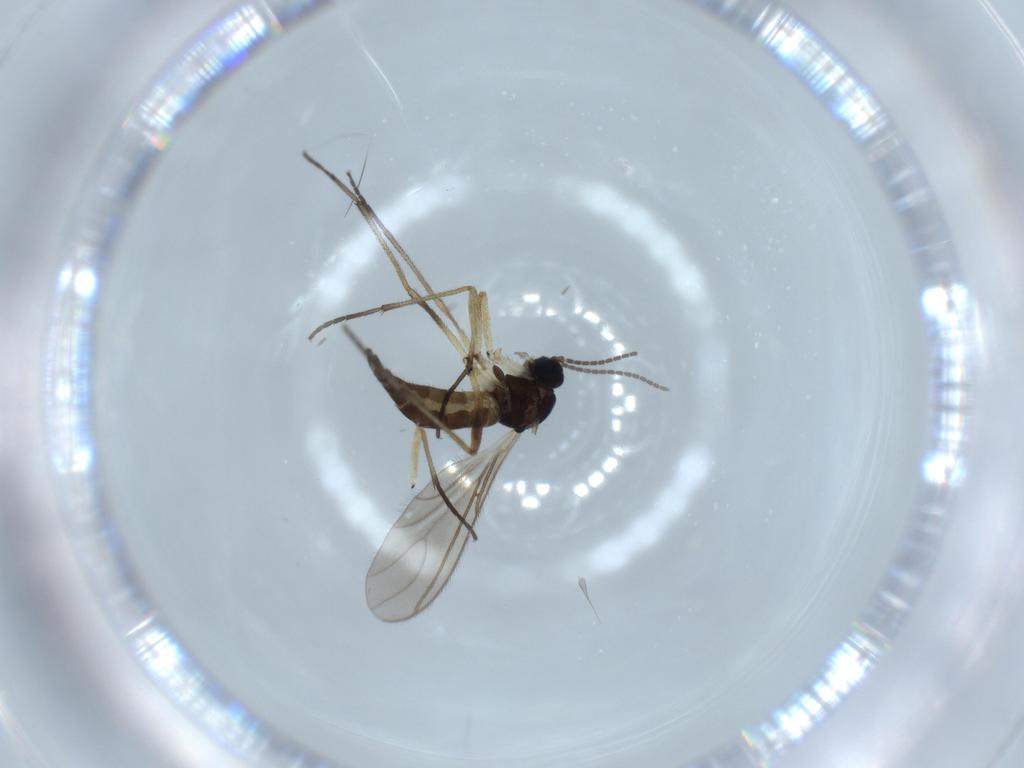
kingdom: Animalia
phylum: Arthropoda
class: Insecta
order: Diptera
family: Sciaridae
